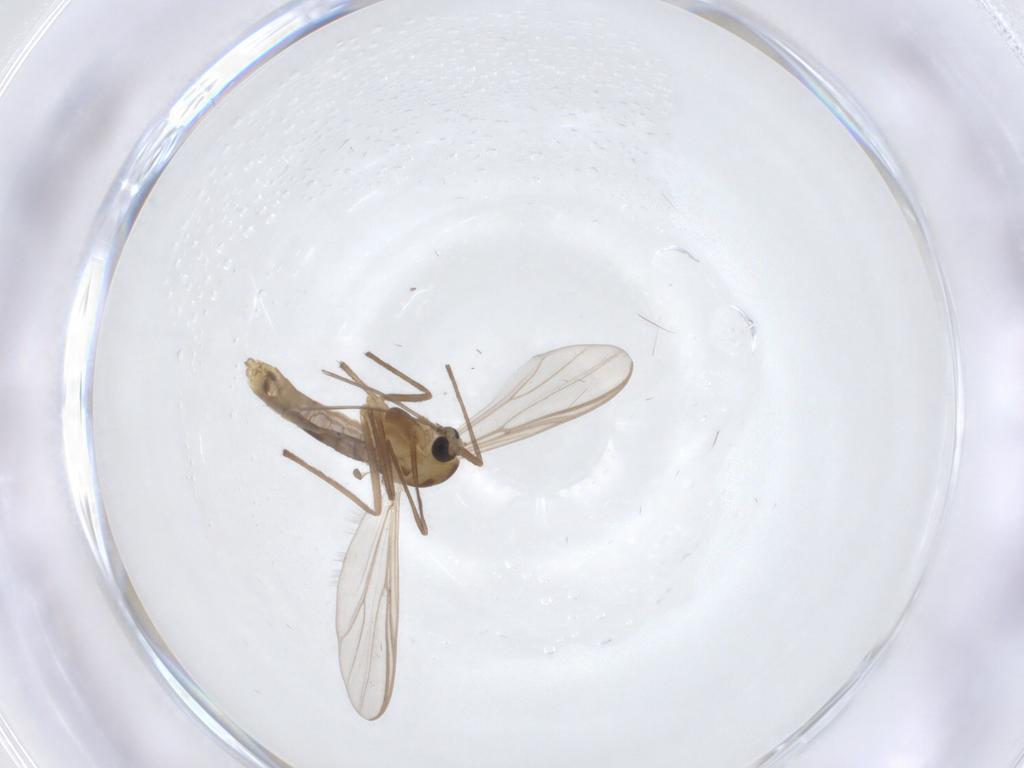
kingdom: Animalia
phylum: Arthropoda
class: Insecta
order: Diptera
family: Chironomidae
